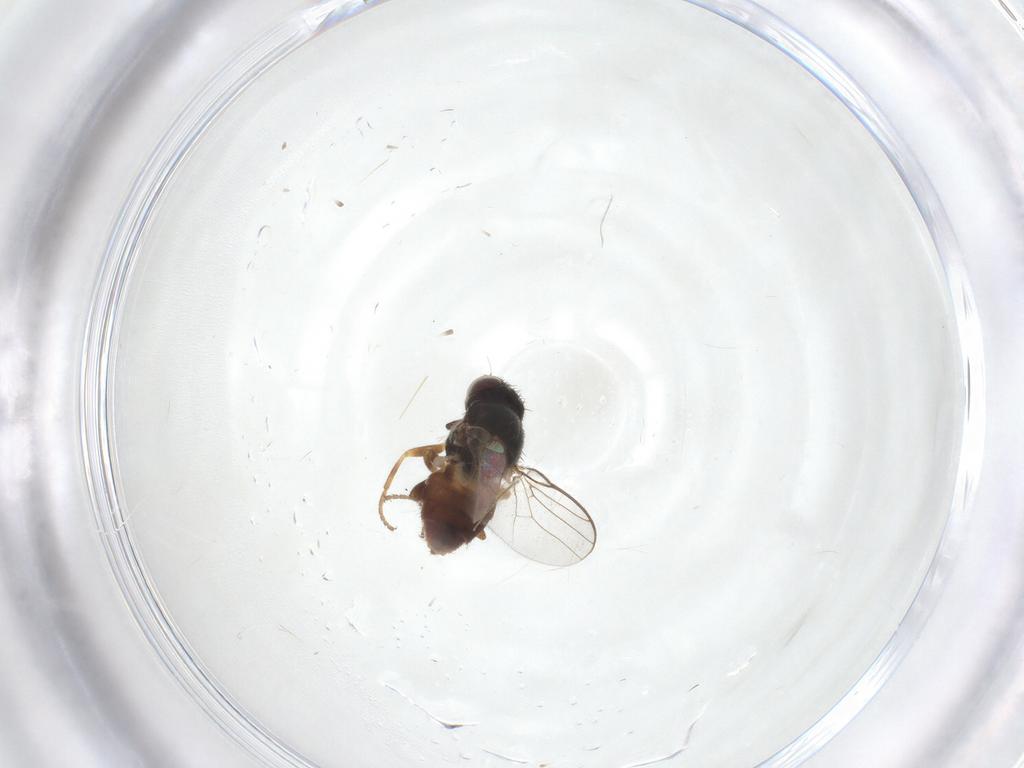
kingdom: Animalia
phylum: Arthropoda
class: Insecta
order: Diptera
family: Chloropidae
